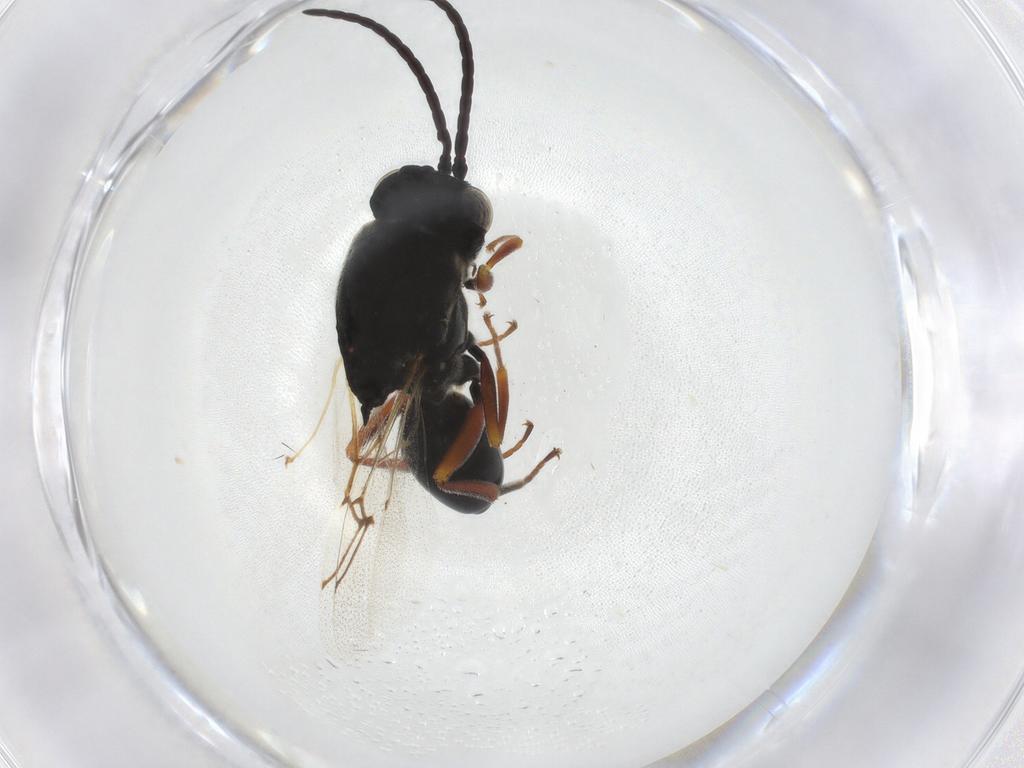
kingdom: Animalia
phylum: Arthropoda
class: Insecta
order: Hymenoptera
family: Figitidae
